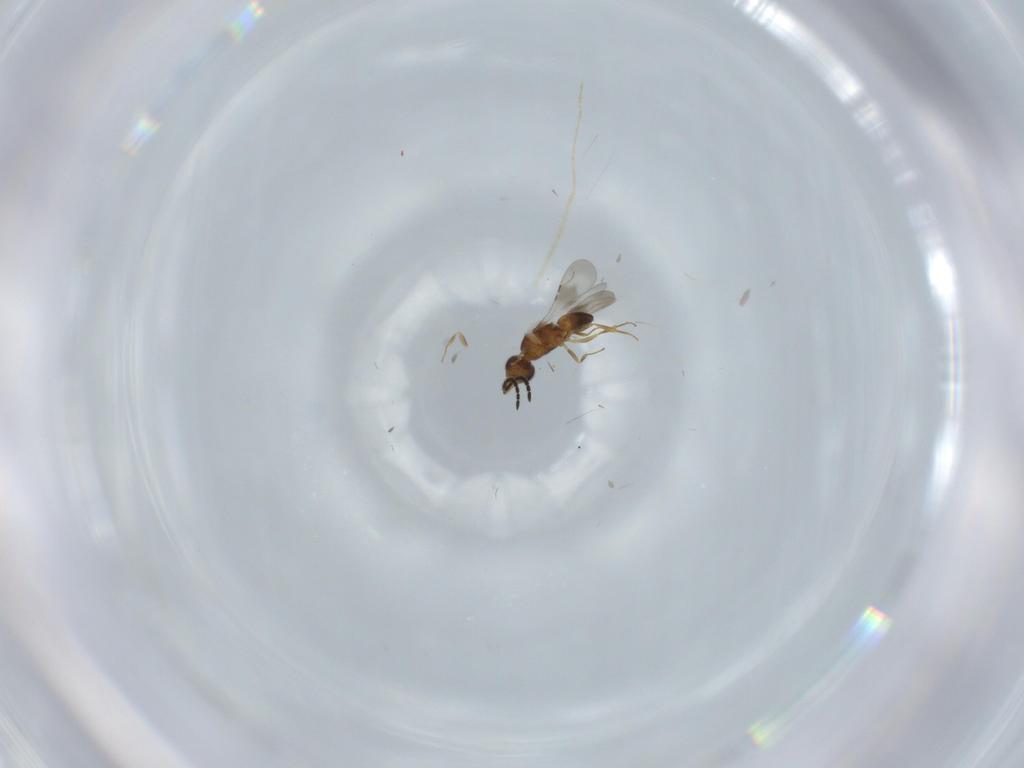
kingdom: Animalia
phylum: Arthropoda
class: Insecta
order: Hymenoptera
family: Ceraphronidae
